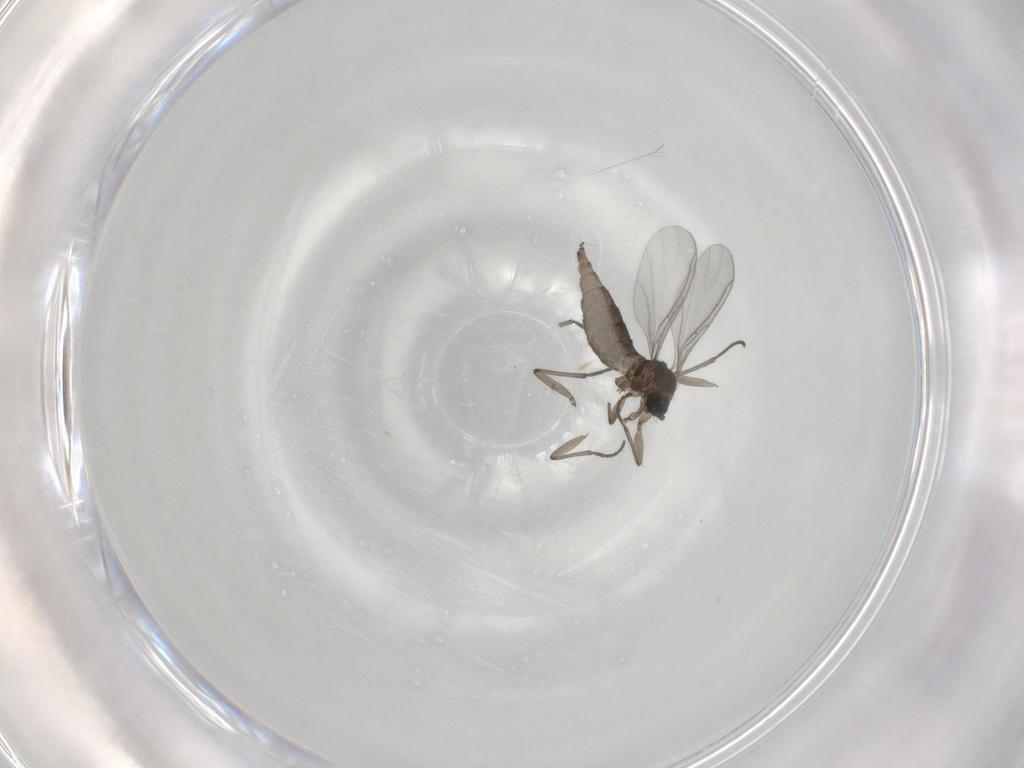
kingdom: Animalia
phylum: Arthropoda
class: Insecta
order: Diptera
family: Sciaridae
